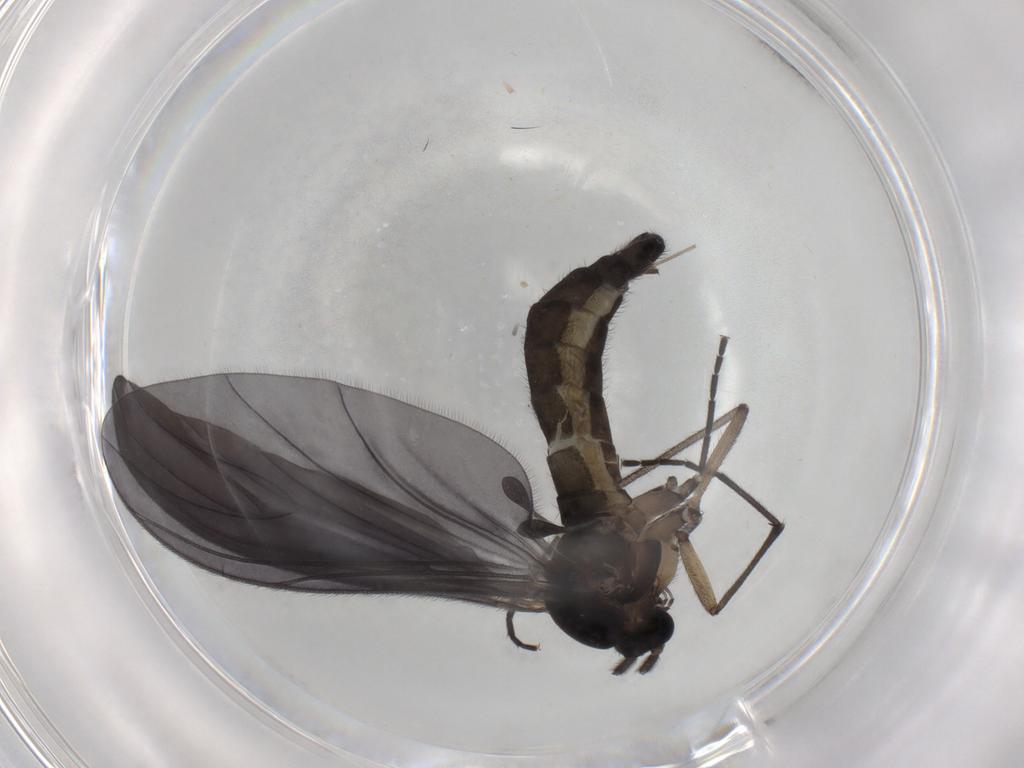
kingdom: Animalia
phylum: Arthropoda
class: Insecta
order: Diptera
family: Sciaridae
